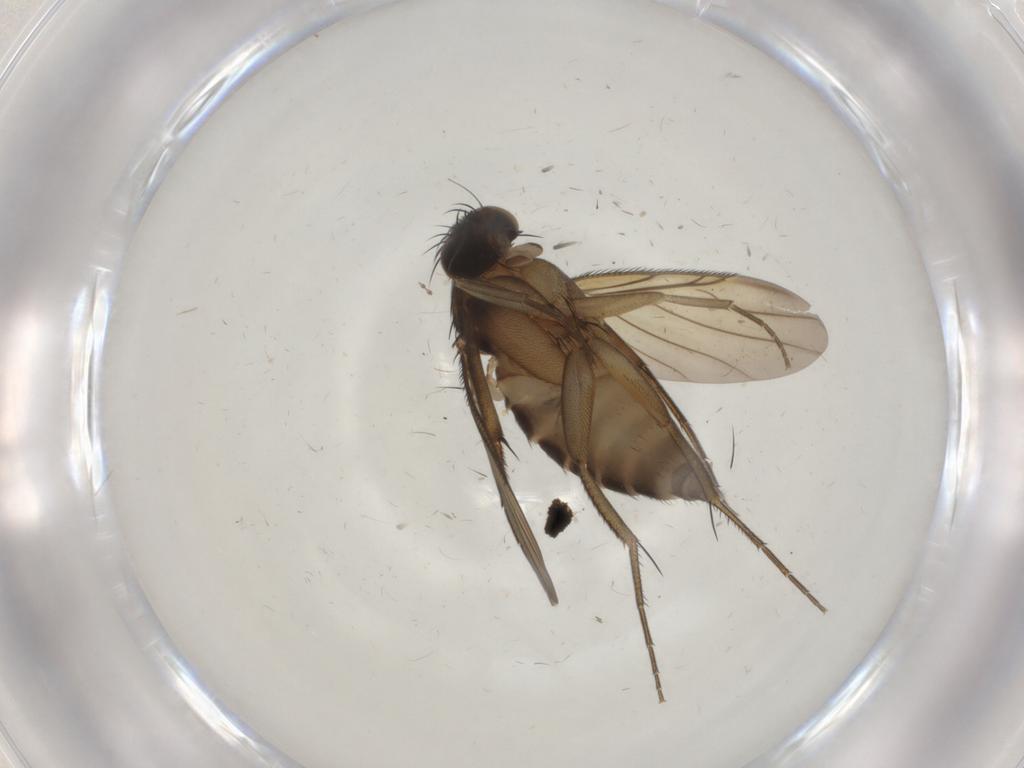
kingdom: Animalia
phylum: Arthropoda
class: Insecta
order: Diptera
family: Phoridae
